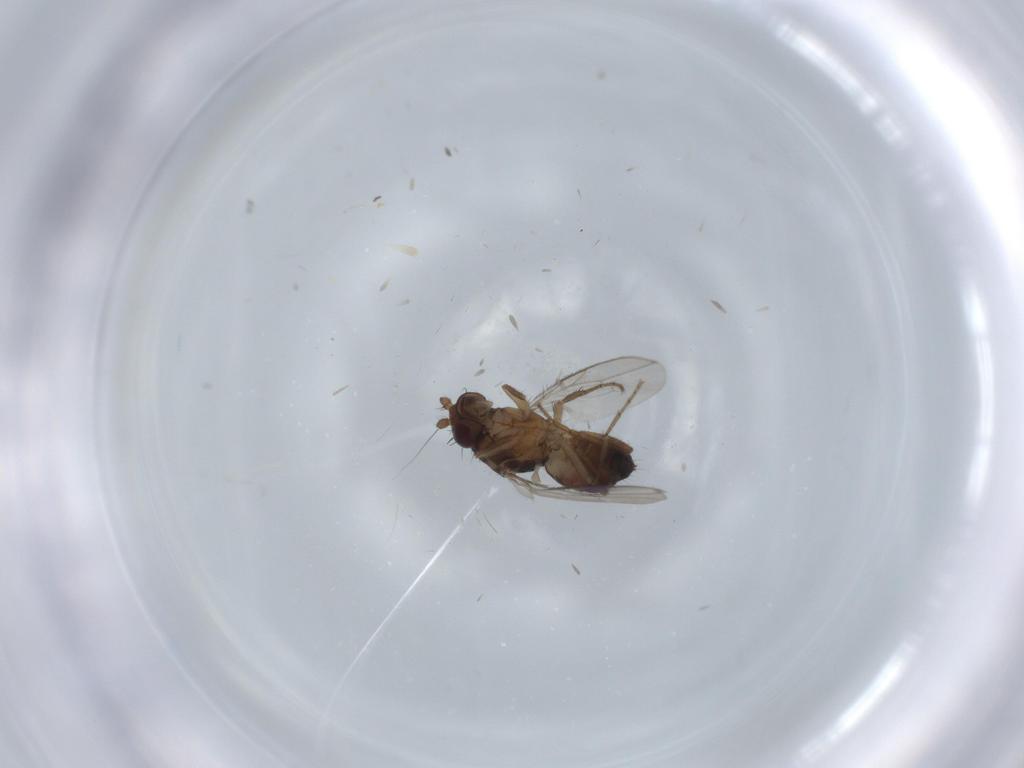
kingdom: Animalia
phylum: Arthropoda
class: Insecta
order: Diptera
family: Sphaeroceridae
